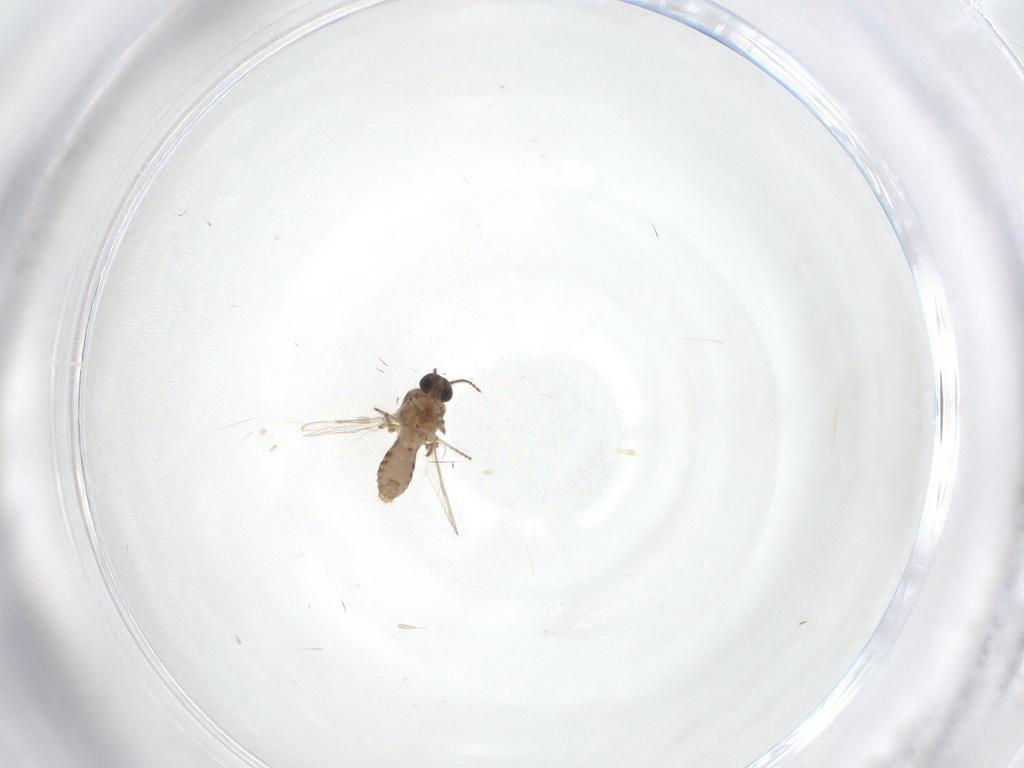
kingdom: Animalia
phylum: Arthropoda
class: Insecta
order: Diptera
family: Ceratopogonidae
